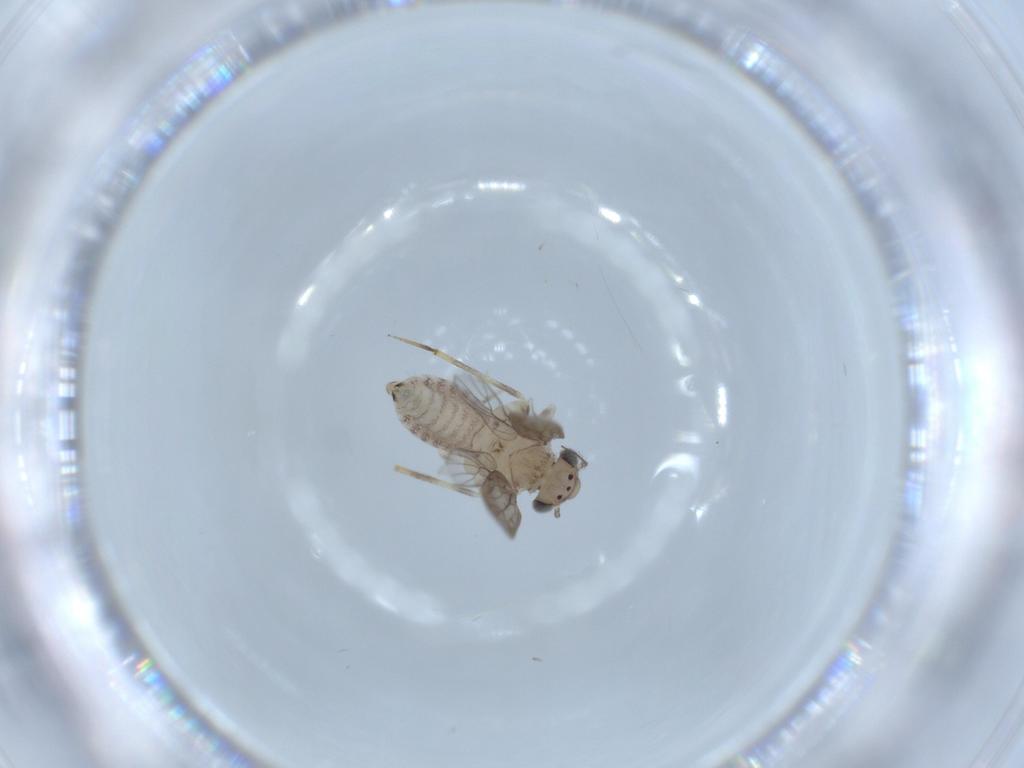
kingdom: Animalia
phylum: Arthropoda
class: Insecta
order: Psocodea
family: Lepidopsocidae
